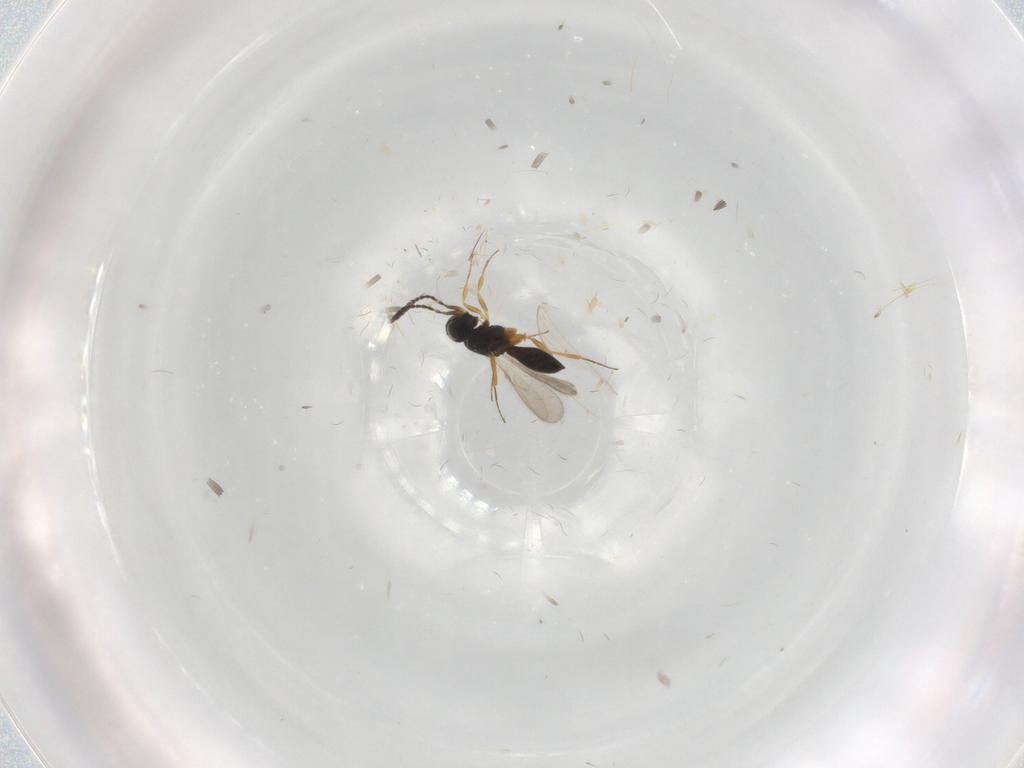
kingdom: Animalia
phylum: Arthropoda
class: Insecta
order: Hymenoptera
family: Scelionidae
